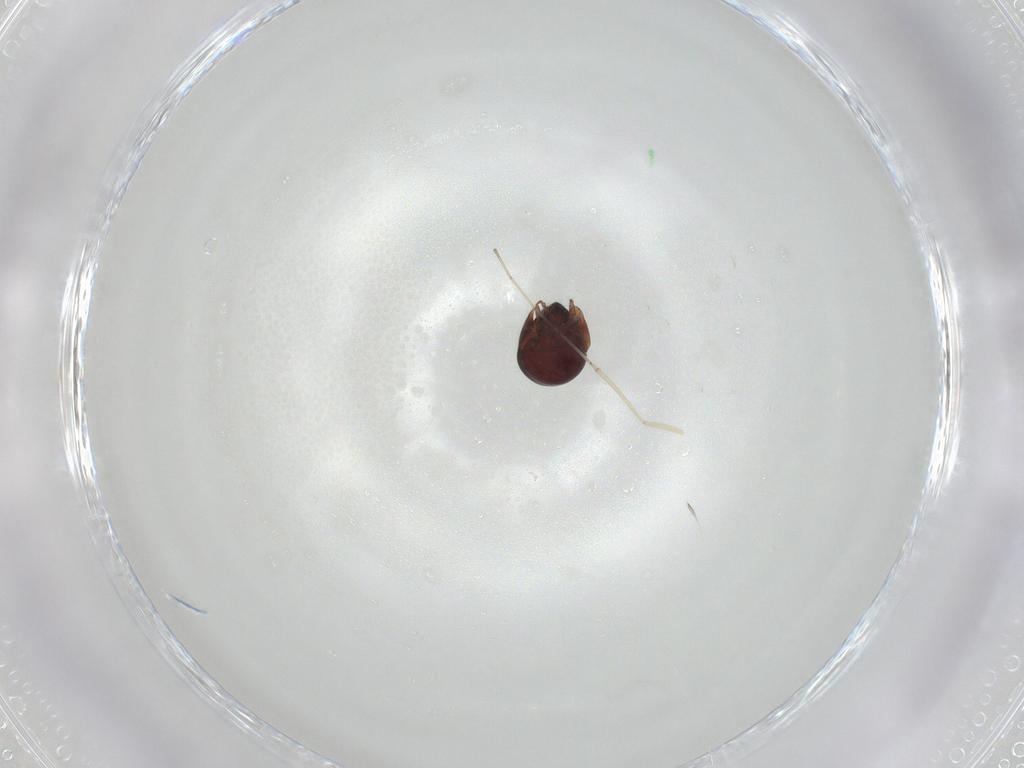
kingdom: Animalia
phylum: Arthropoda
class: Arachnida
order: Sarcoptiformes
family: Galumnidae
